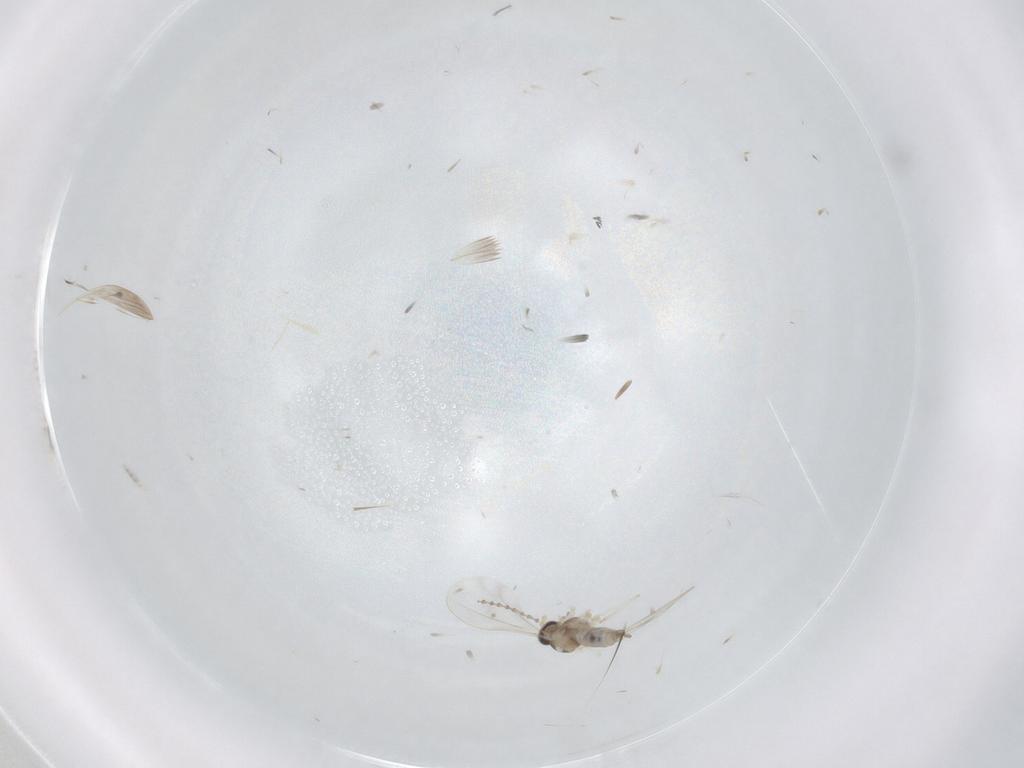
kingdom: Animalia
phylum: Arthropoda
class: Insecta
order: Diptera
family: Cecidomyiidae
